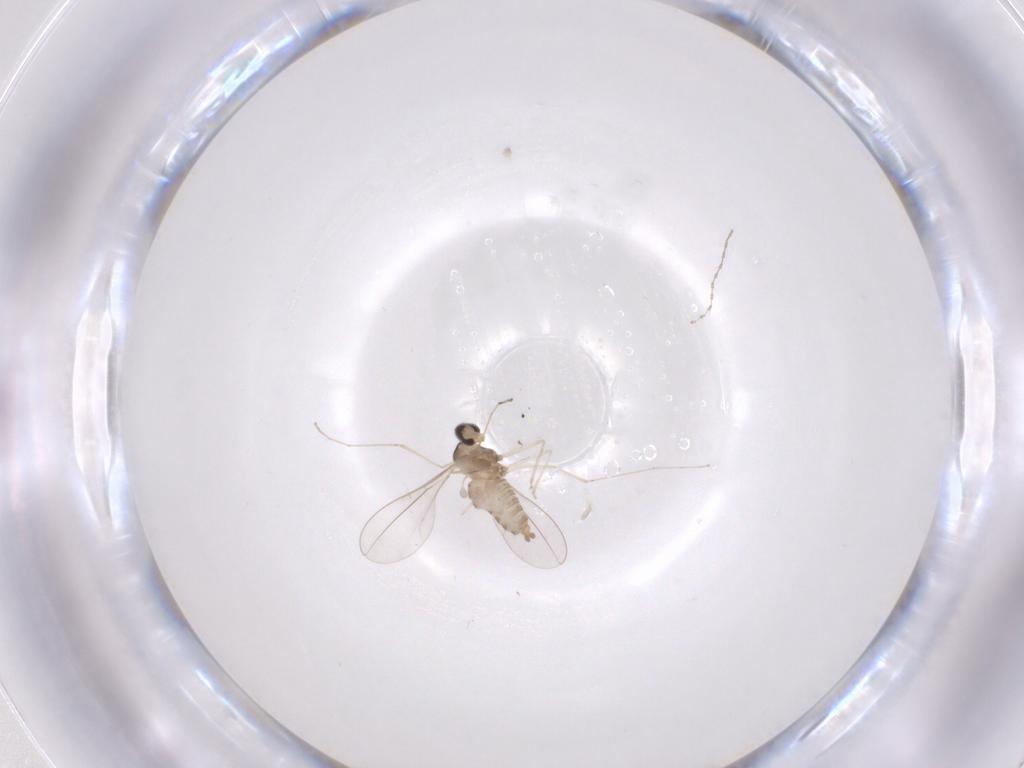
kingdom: Animalia
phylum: Arthropoda
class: Insecta
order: Diptera
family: Cecidomyiidae
